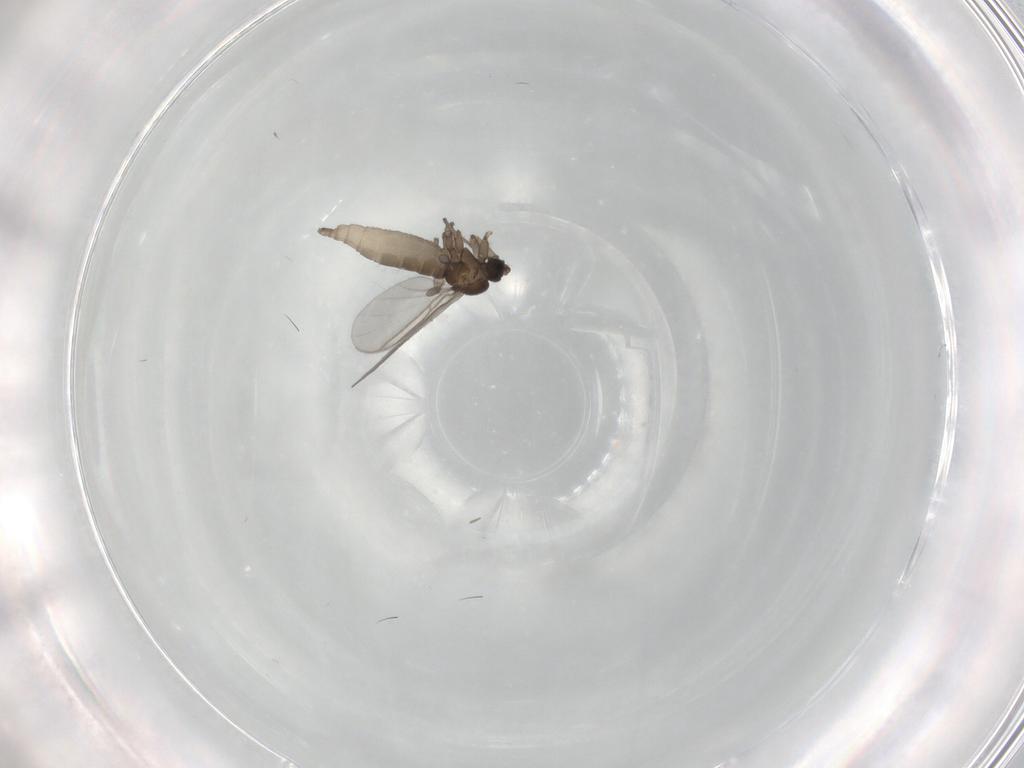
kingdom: Animalia
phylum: Arthropoda
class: Insecta
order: Diptera
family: Sciaridae
